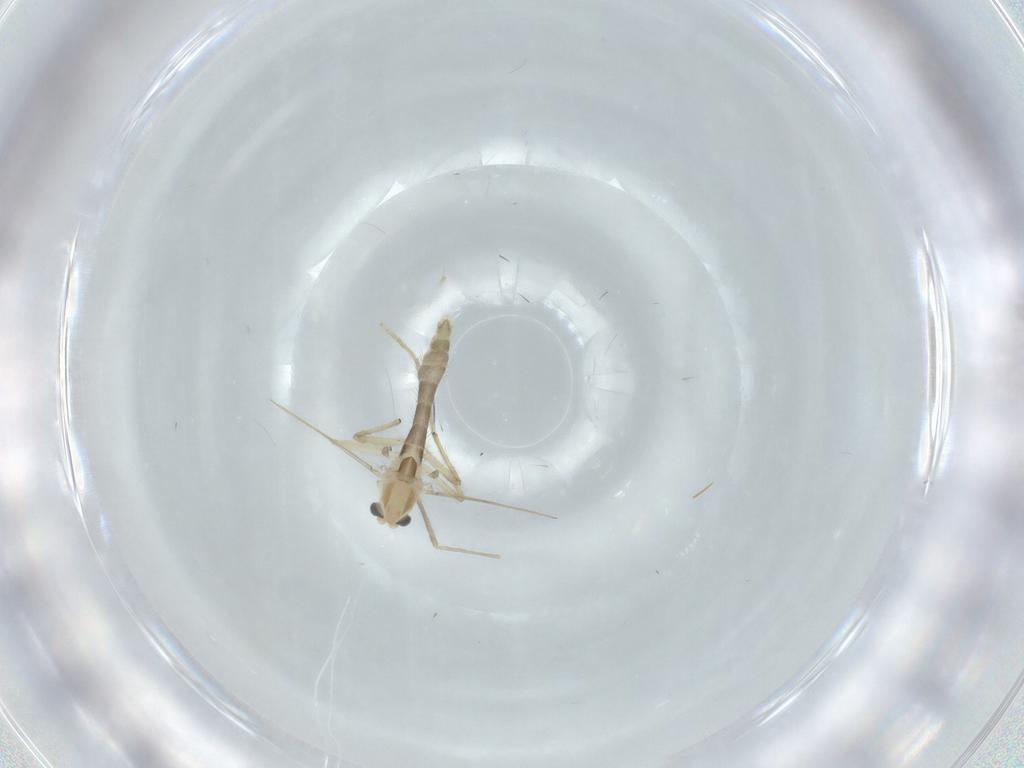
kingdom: Animalia
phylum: Arthropoda
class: Insecta
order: Diptera
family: Chironomidae
